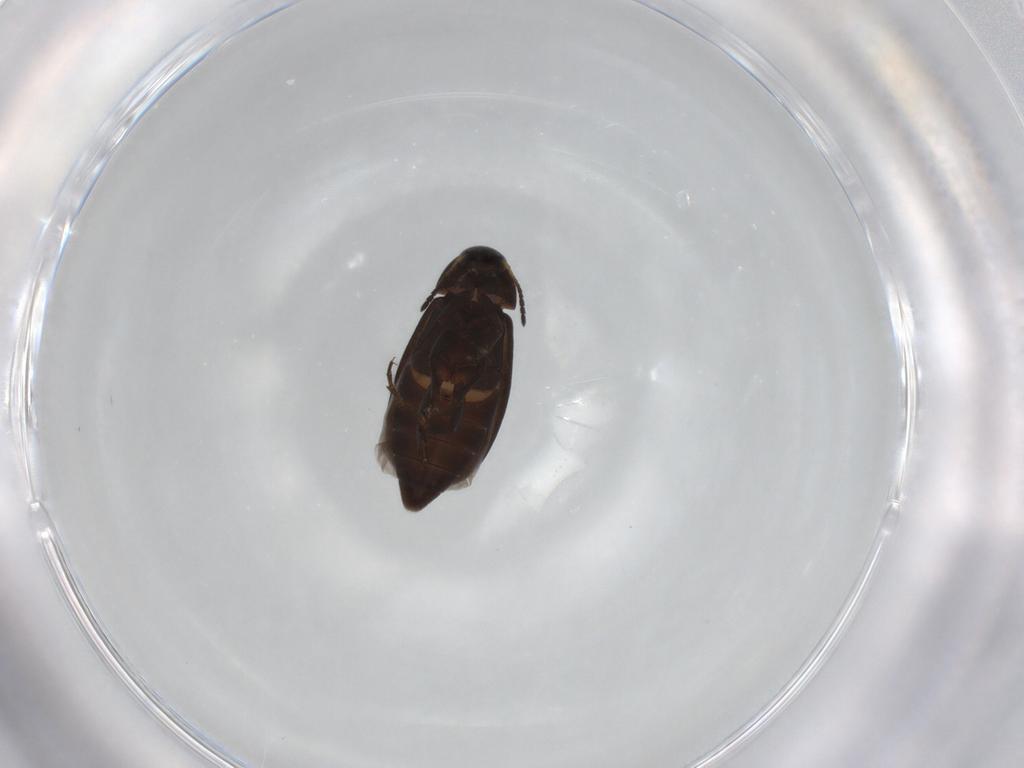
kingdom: Animalia
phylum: Arthropoda
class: Insecta
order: Coleoptera
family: Scraptiidae
